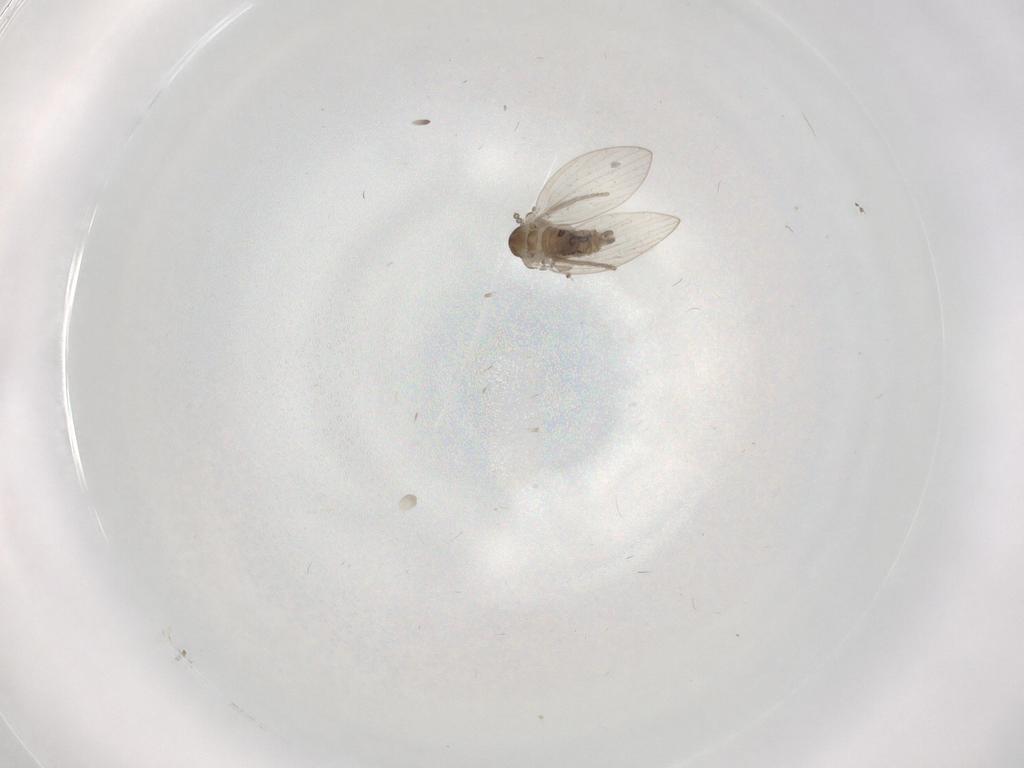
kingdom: Animalia
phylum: Arthropoda
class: Insecta
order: Diptera
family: Psychodidae
